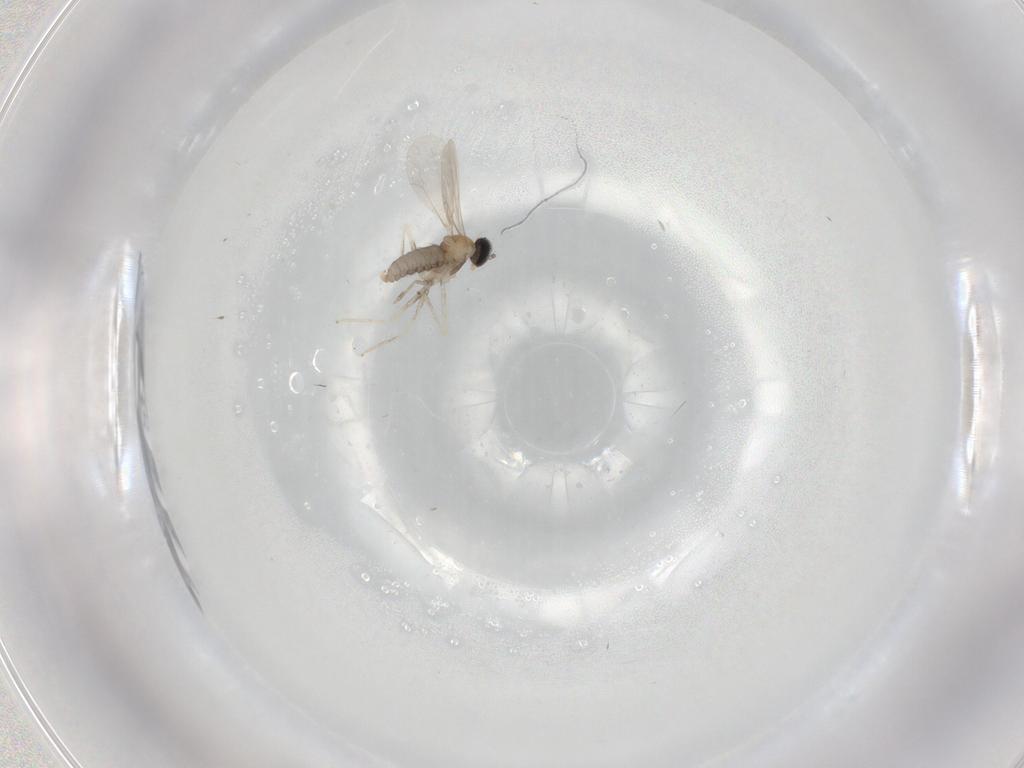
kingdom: Animalia
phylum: Arthropoda
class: Insecta
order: Diptera
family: Cecidomyiidae
